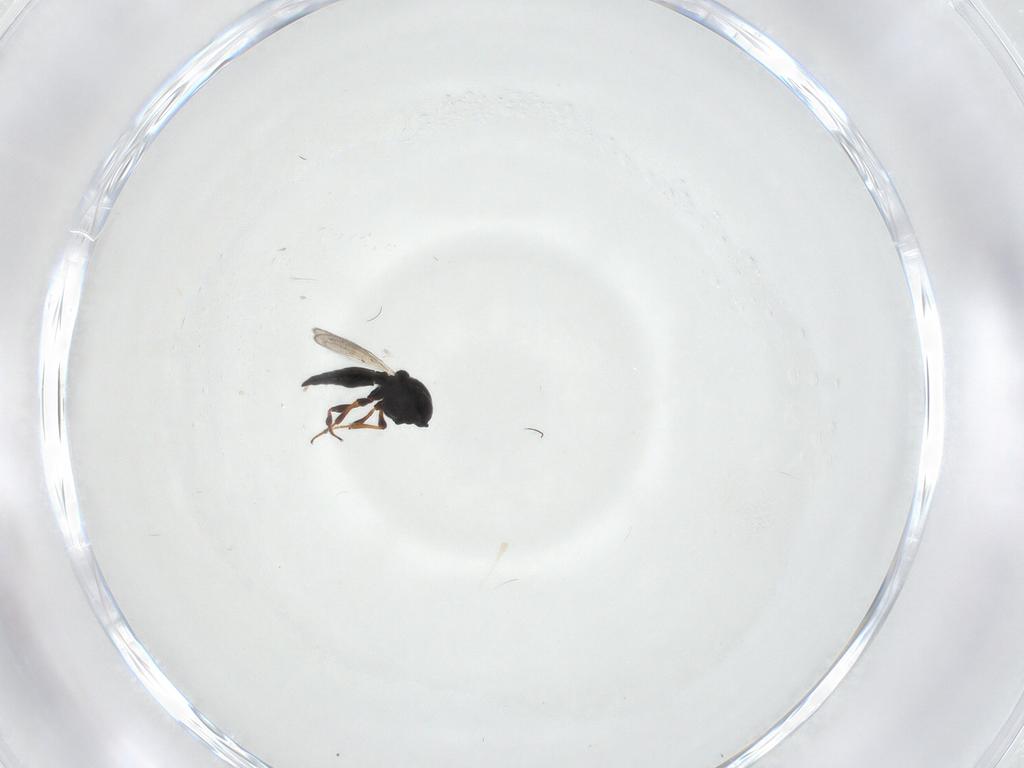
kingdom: Animalia
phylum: Arthropoda
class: Insecta
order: Hymenoptera
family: Platygastridae
